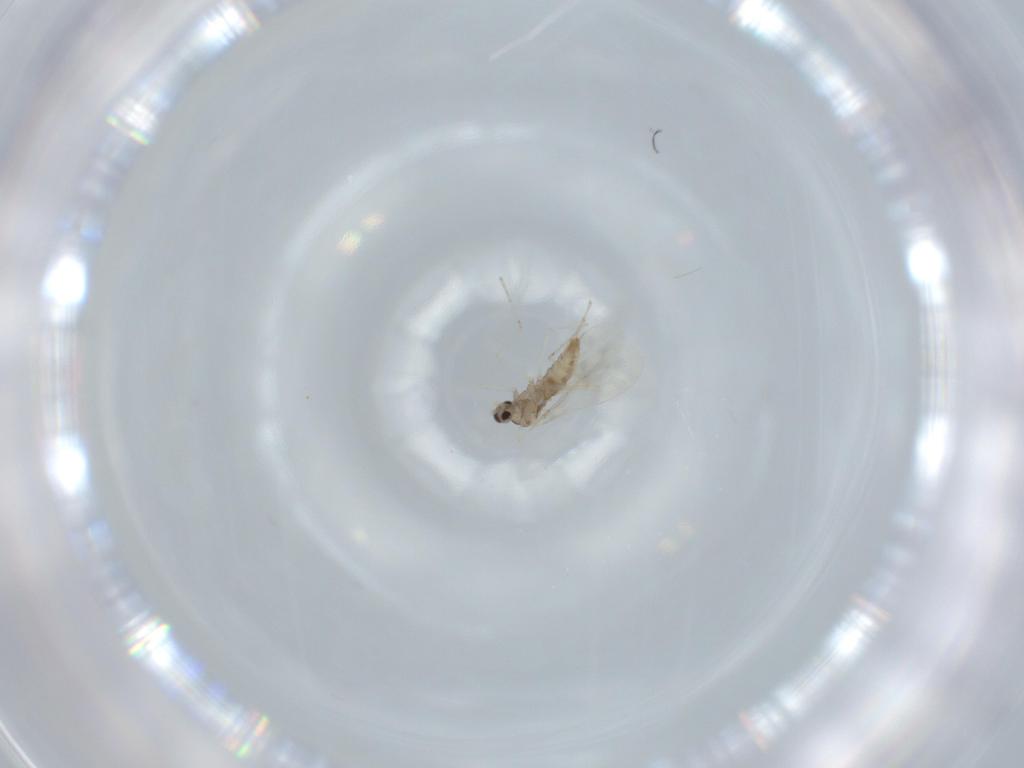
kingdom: Animalia
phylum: Arthropoda
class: Insecta
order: Diptera
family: Cecidomyiidae
